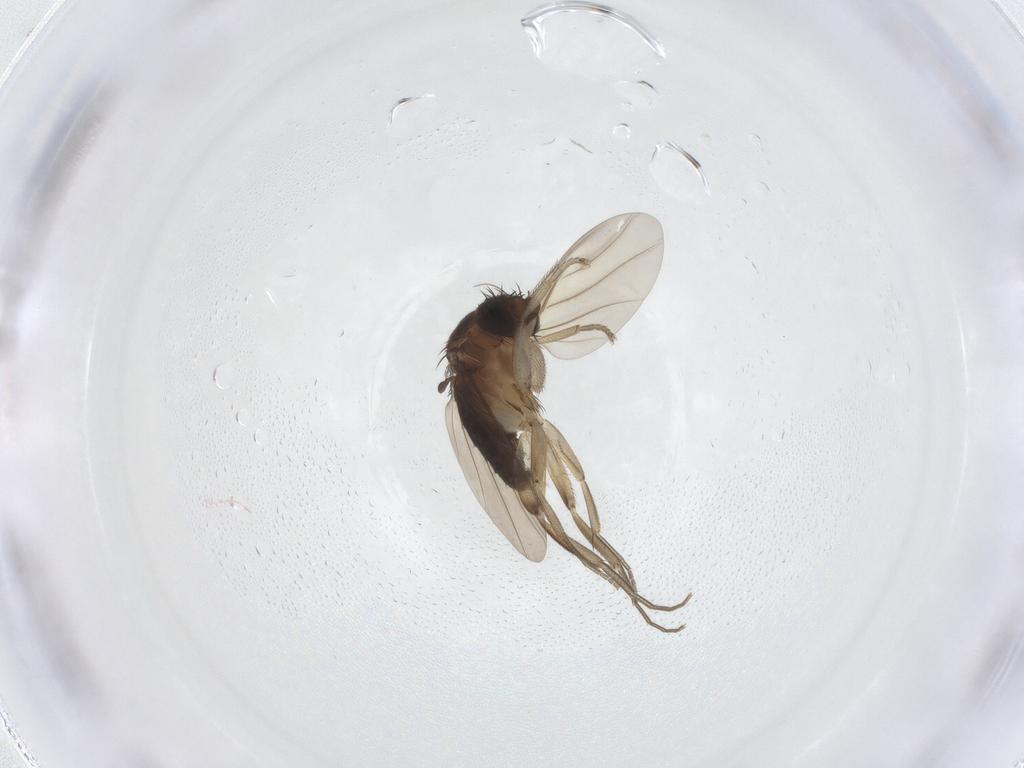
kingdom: Animalia
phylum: Arthropoda
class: Insecta
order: Diptera
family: Phoridae
